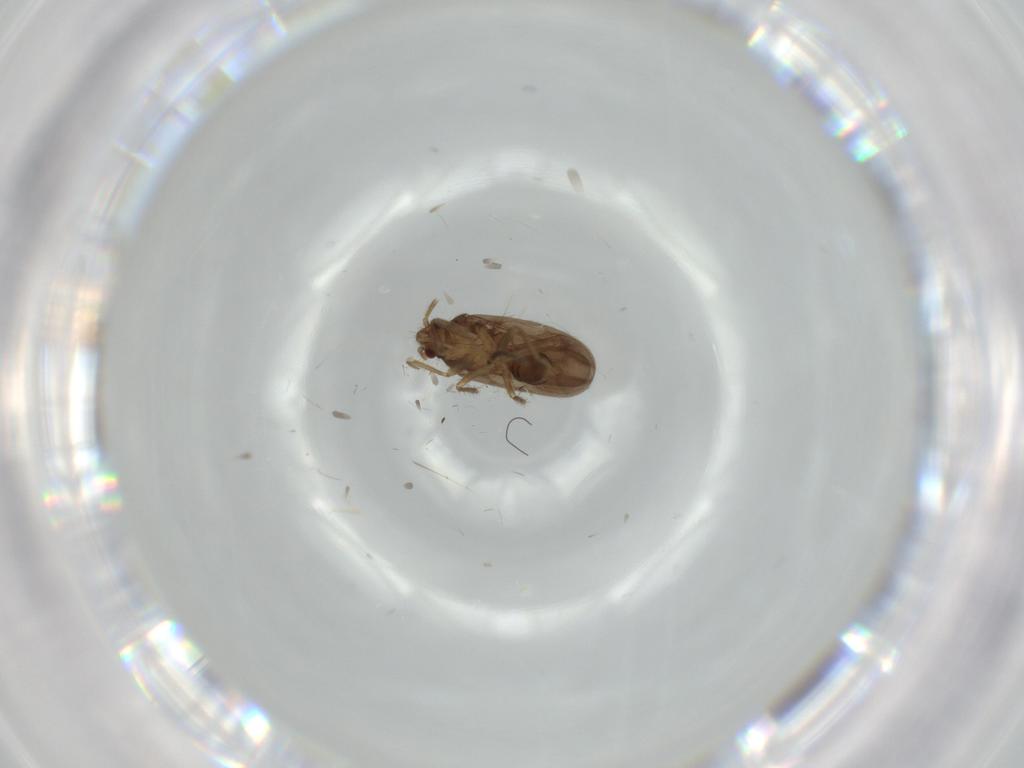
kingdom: Animalia
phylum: Arthropoda
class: Insecta
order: Hemiptera
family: Ceratocombidae
